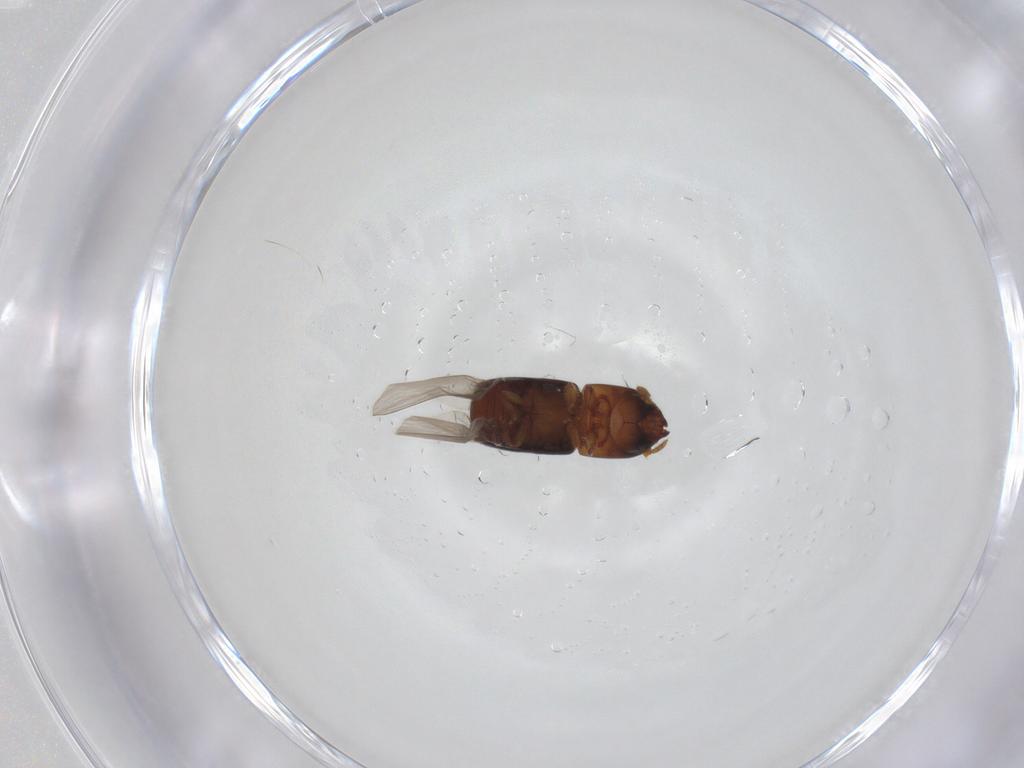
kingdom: Animalia
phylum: Arthropoda
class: Insecta
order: Coleoptera
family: Curculionidae
